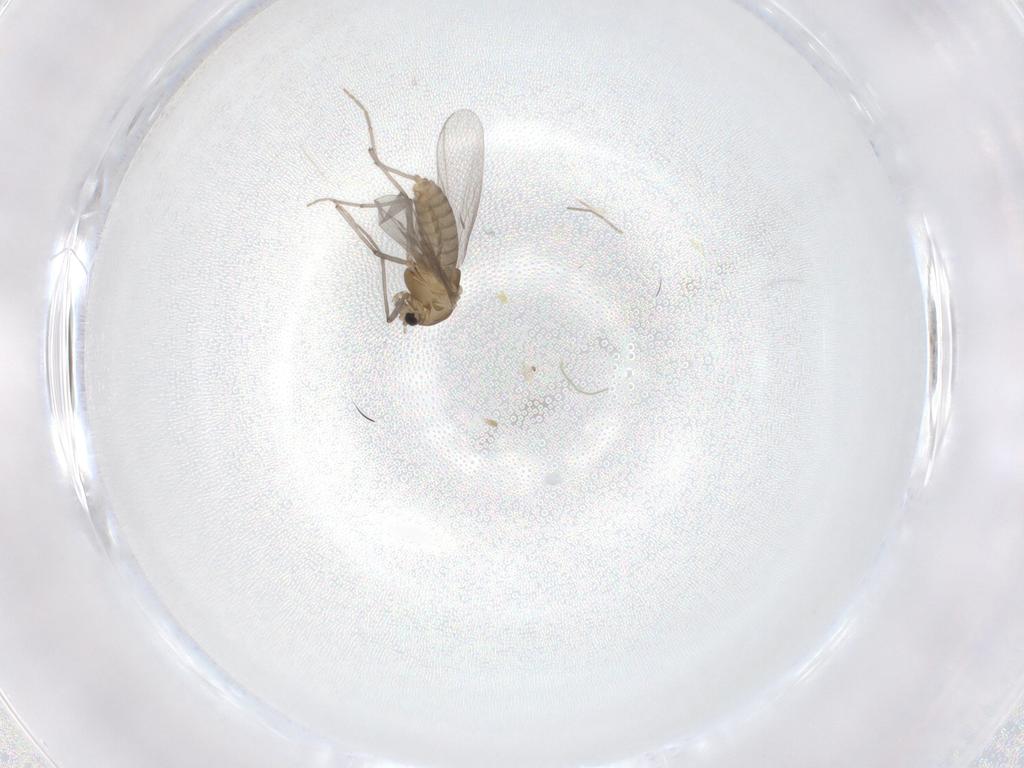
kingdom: Animalia
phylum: Arthropoda
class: Insecta
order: Diptera
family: Chironomidae
